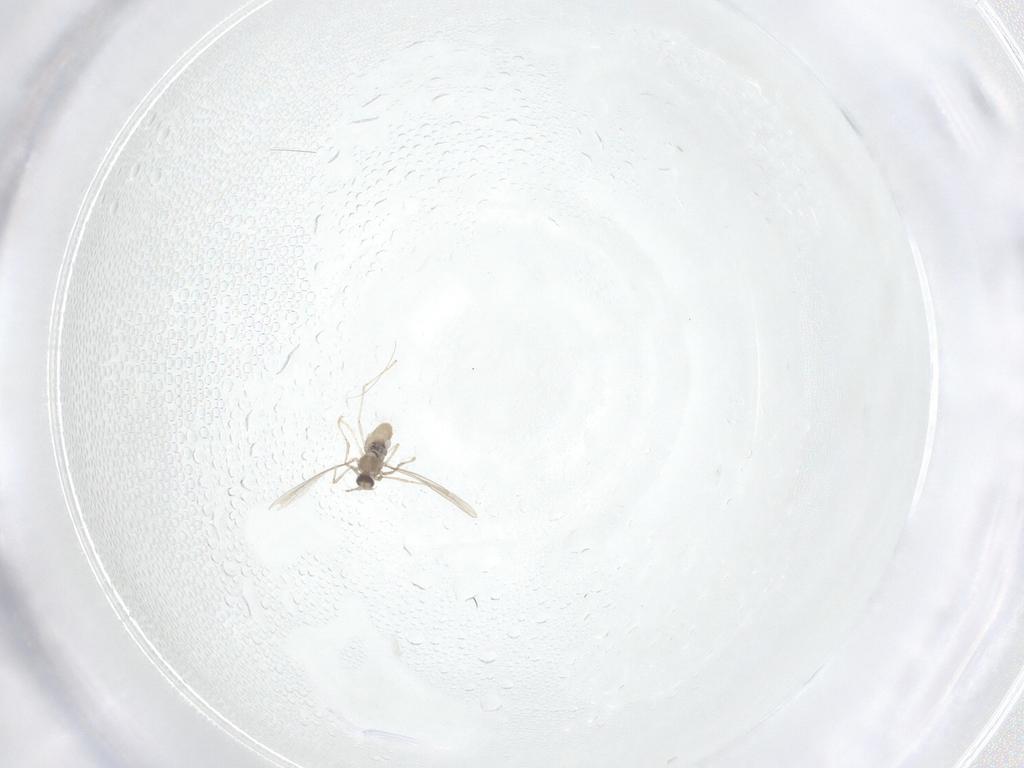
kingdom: Animalia
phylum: Arthropoda
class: Insecta
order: Diptera
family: Cecidomyiidae
